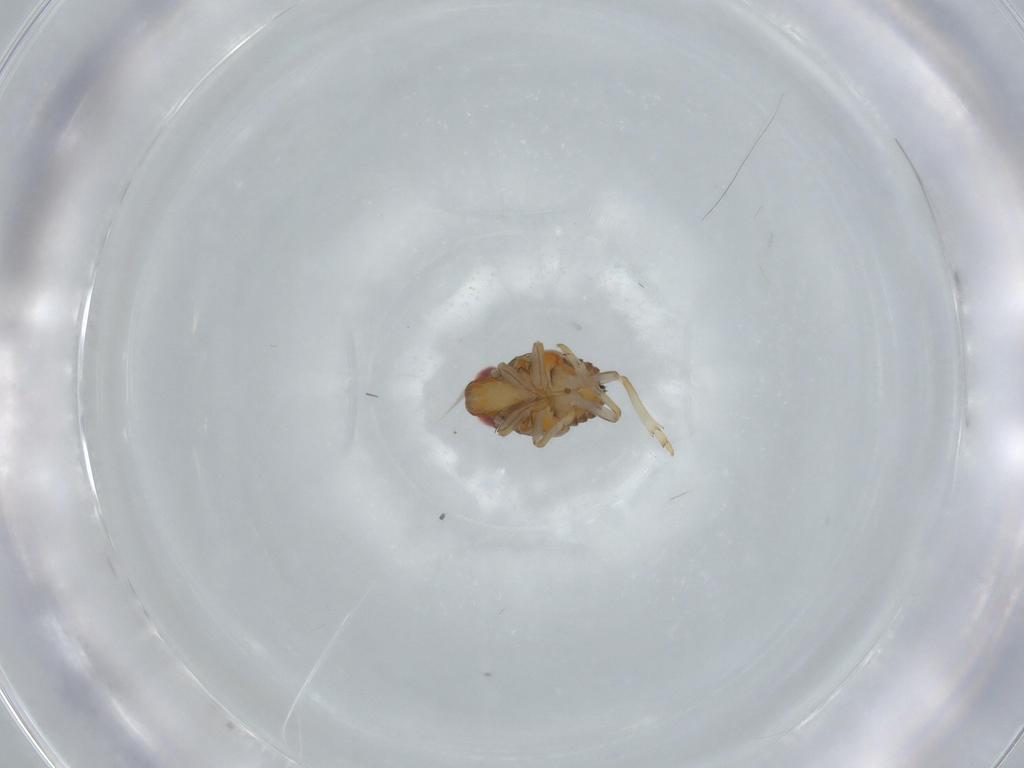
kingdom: Animalia
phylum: Arthropoda
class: Insecta
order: Hemiptera
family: Issidae
